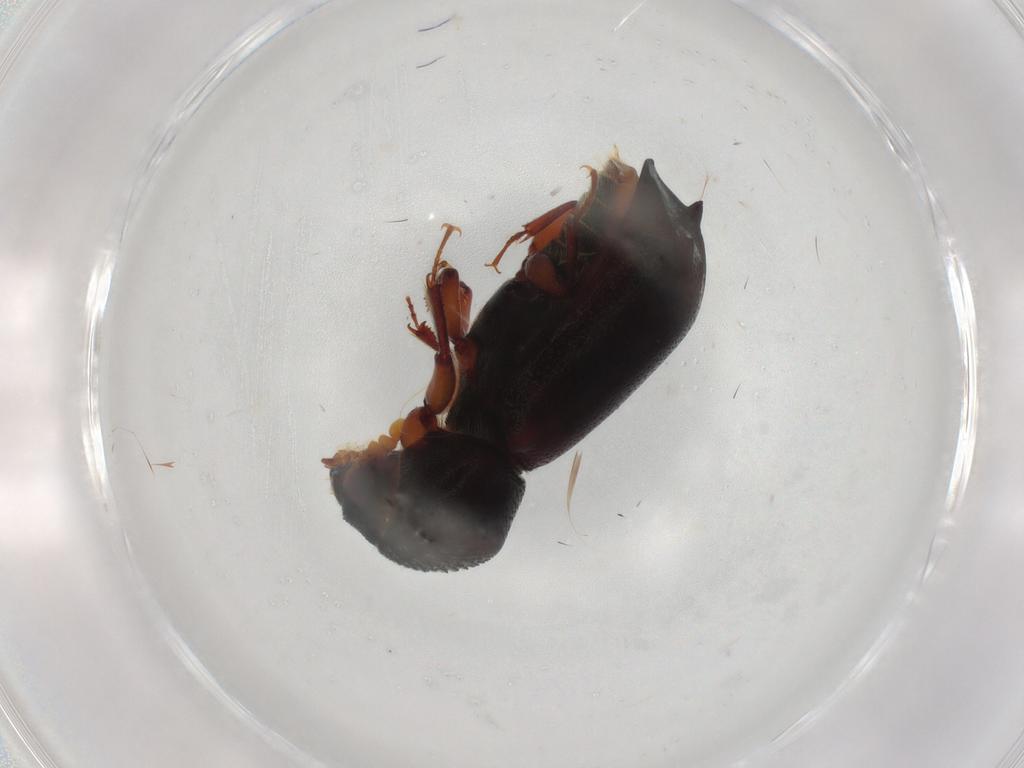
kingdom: Animalia
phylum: Arthropoda
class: Insecta
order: Coleoptera
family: Bostrichidae
